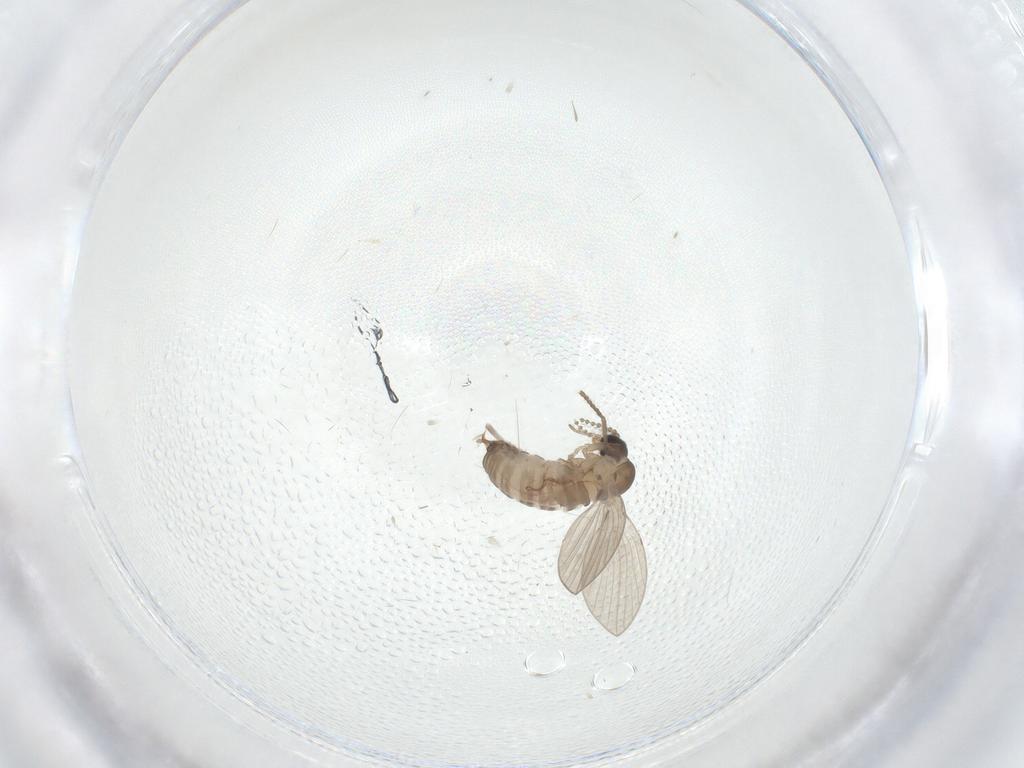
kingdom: Animalia
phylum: Arthropoda
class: Insecta
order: Diptera
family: Psychodidae
